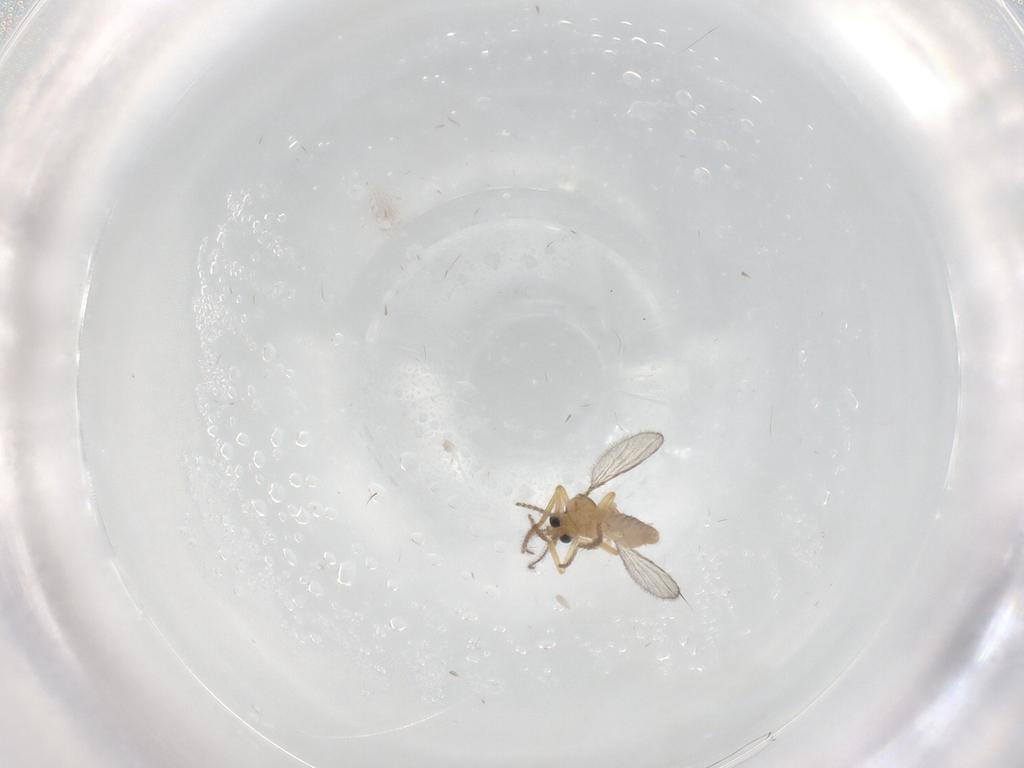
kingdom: Animalia
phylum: Arthropoda
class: Insecta
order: Diptera
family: Ceratopogonidae
